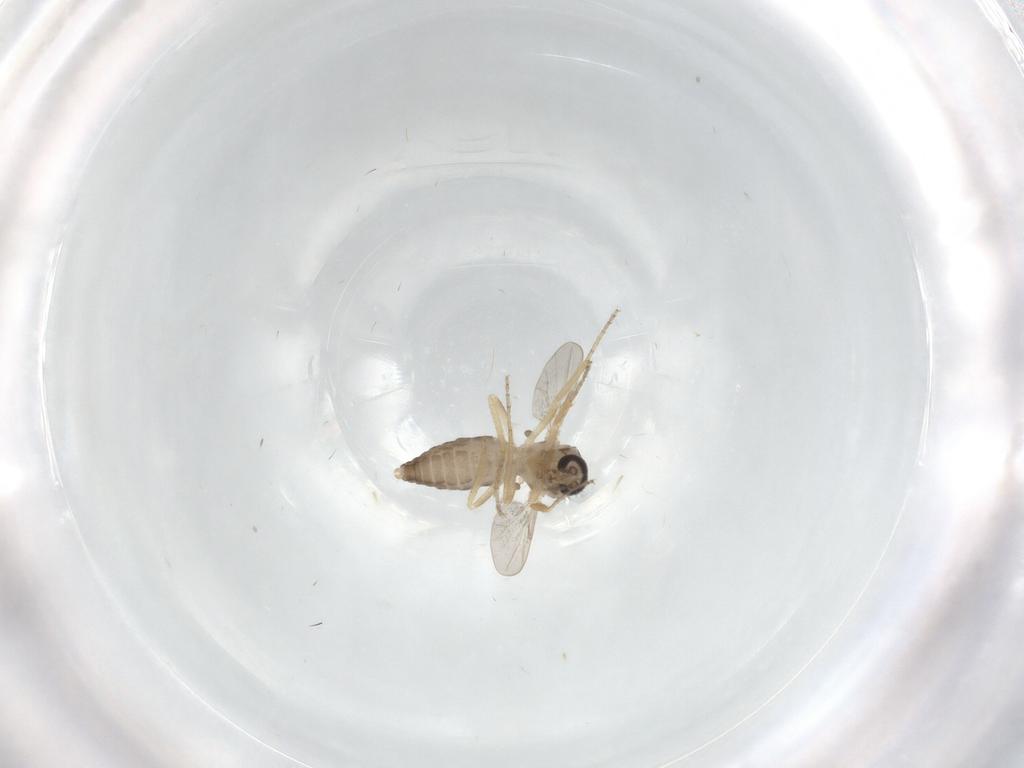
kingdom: Animalia
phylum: Arthropoda
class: Insecta
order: Diptera
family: Ceratopogonidae
